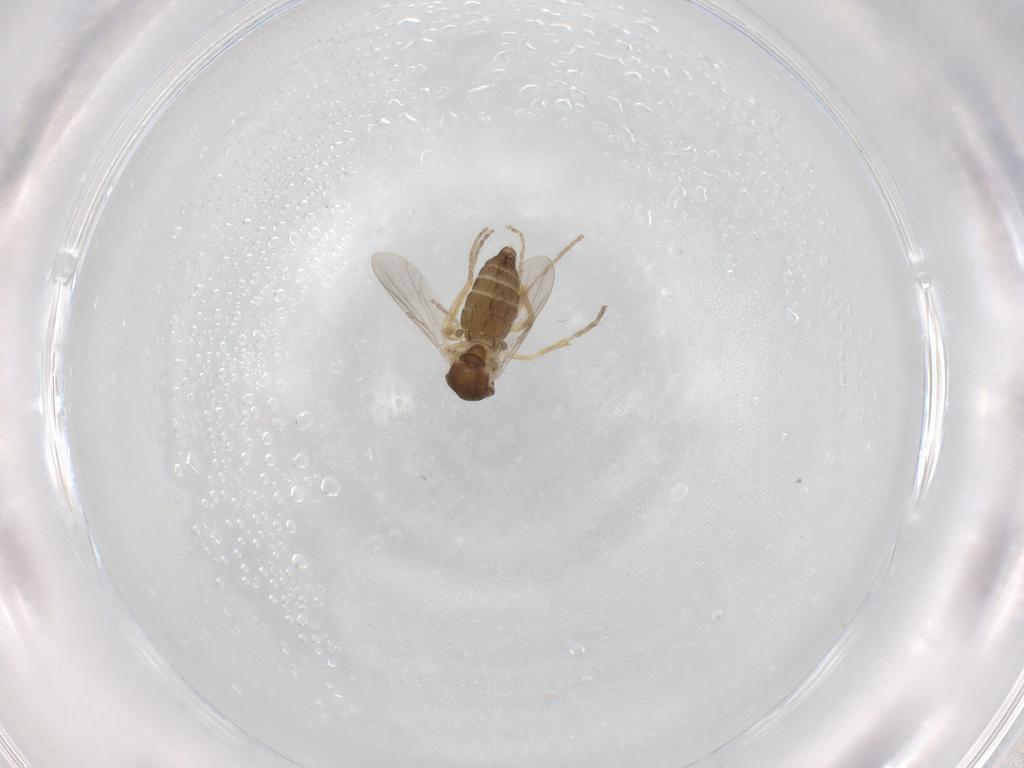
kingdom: Animalia
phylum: Arthropoda
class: Insecta
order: Diptera
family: Ceratopogonidae
